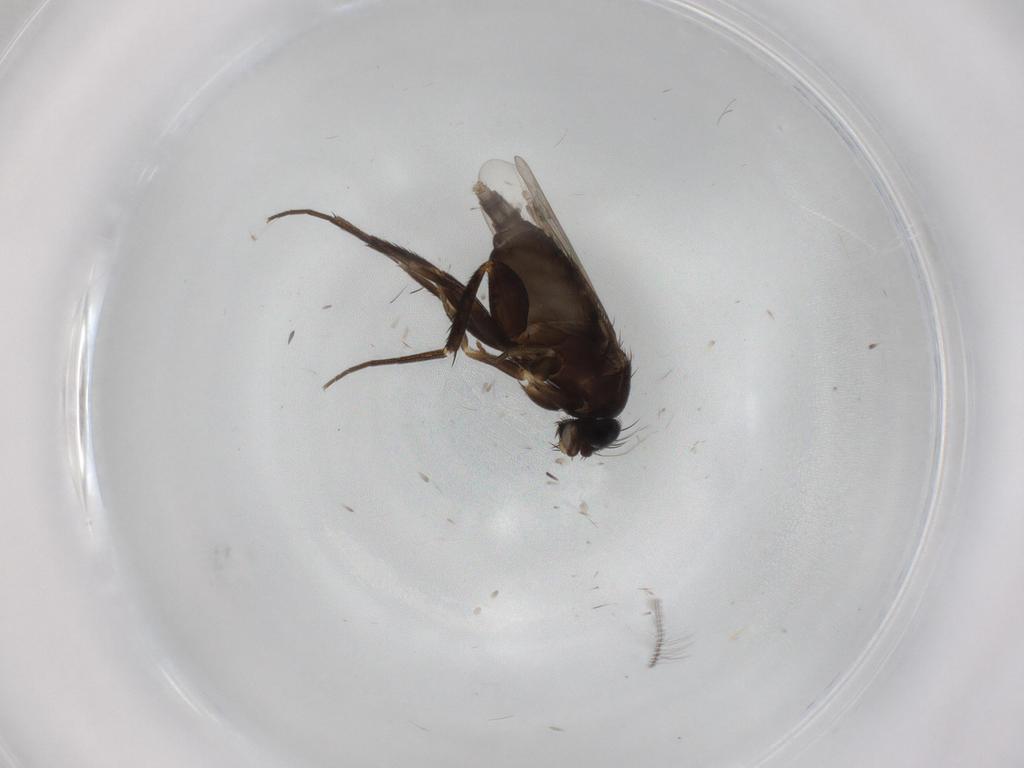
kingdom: Animalia
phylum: Arthropoda
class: Insecta
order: Diptera
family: Phoridae
